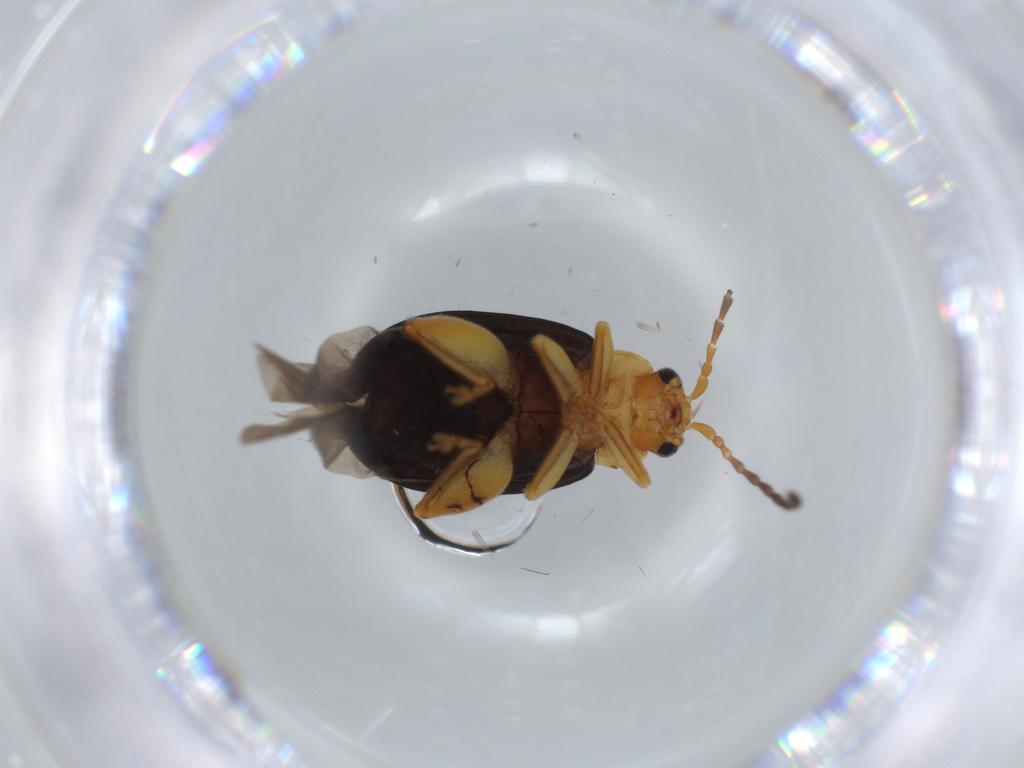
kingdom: Animalia
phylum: Arthropoda
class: Insecta
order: Coleoptera
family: Chrysomelidae
